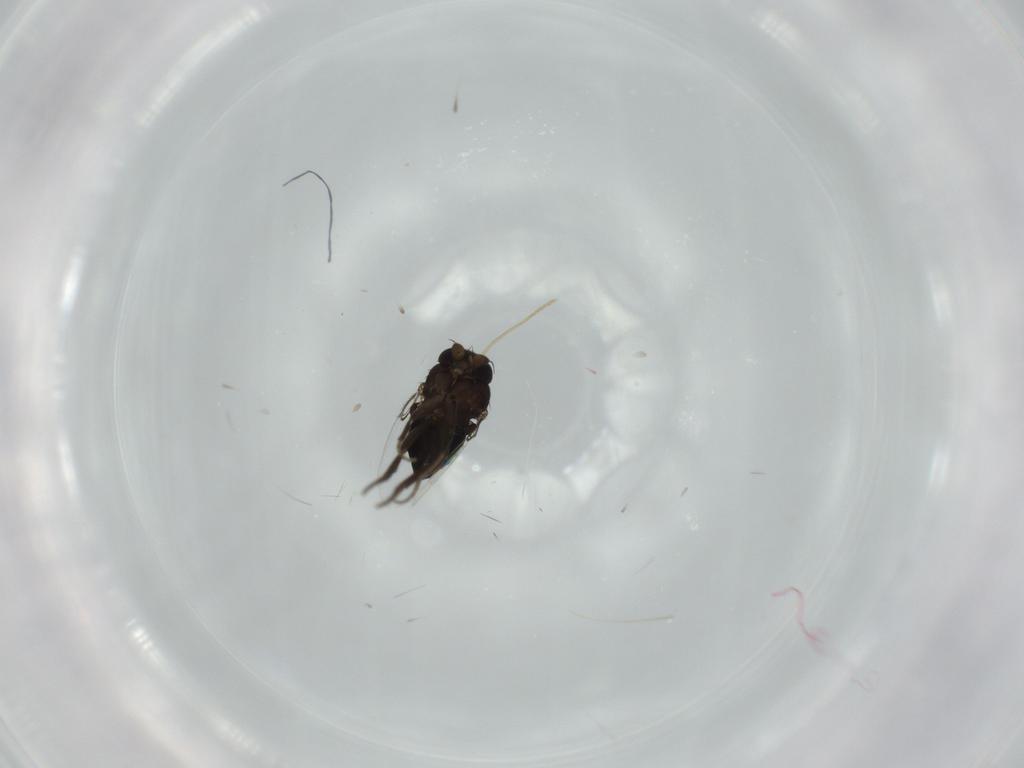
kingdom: Animalia
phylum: Arthropoda
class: Insecta
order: Diptera
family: Phoridae
